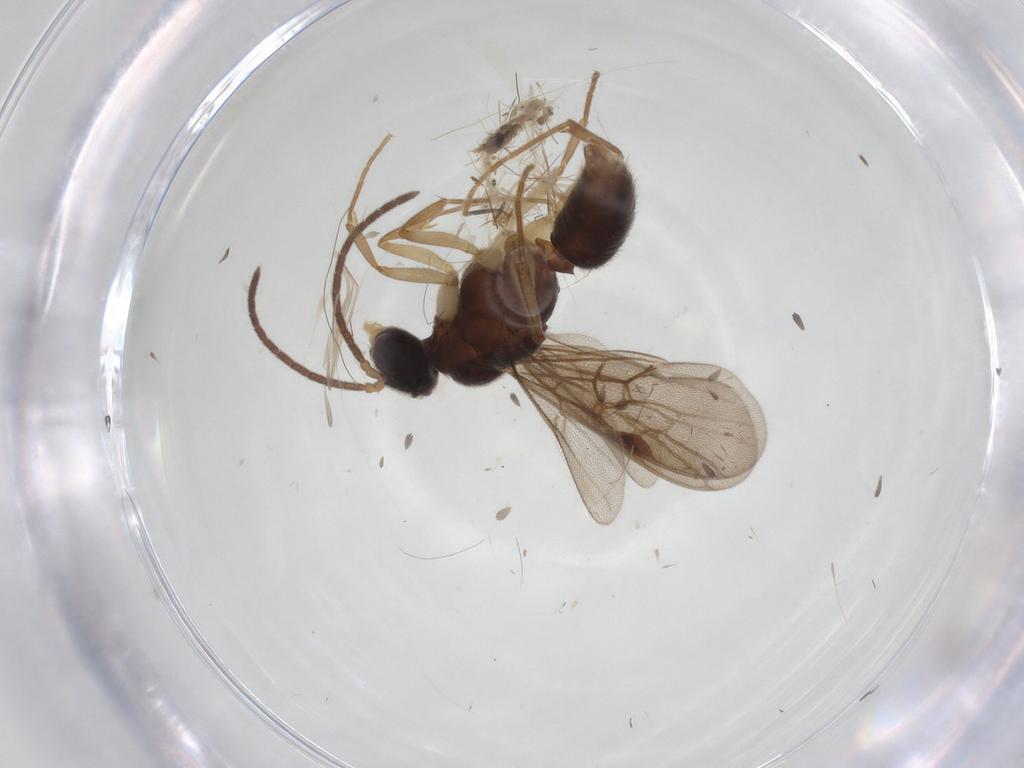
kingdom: Animalia
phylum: Arthropoda
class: Insecta
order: Hymenoptera
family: Formicidae
